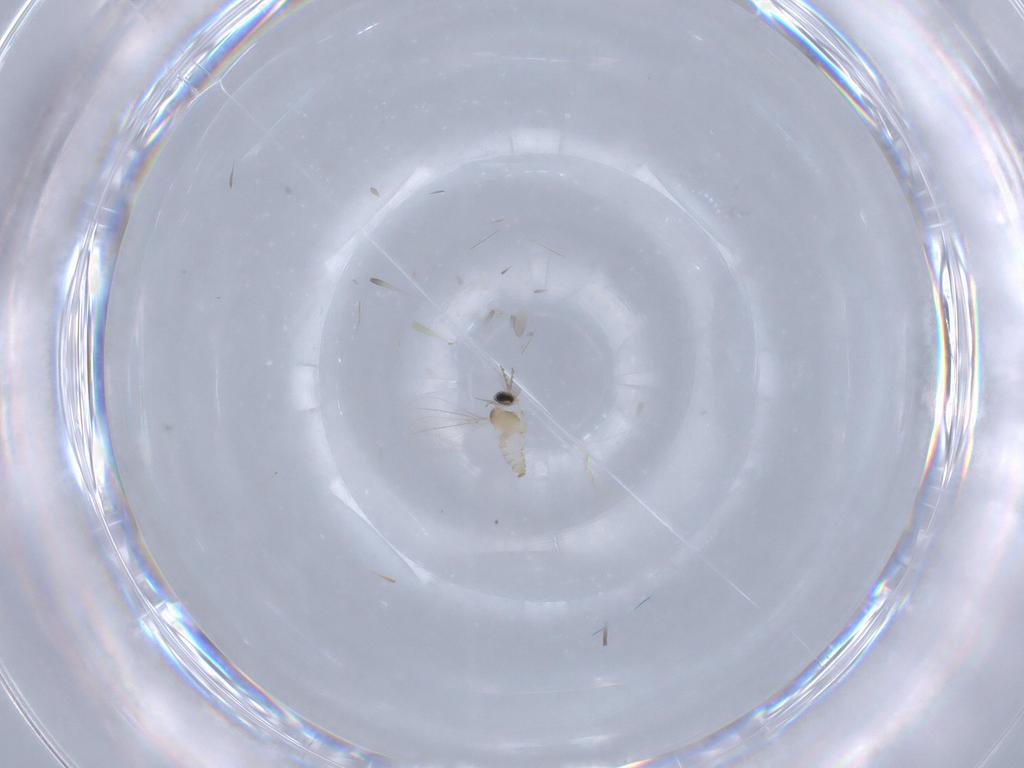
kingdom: Animalia
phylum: Arthropoda
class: Insecta
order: Diptera
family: Cecidomyiidae
